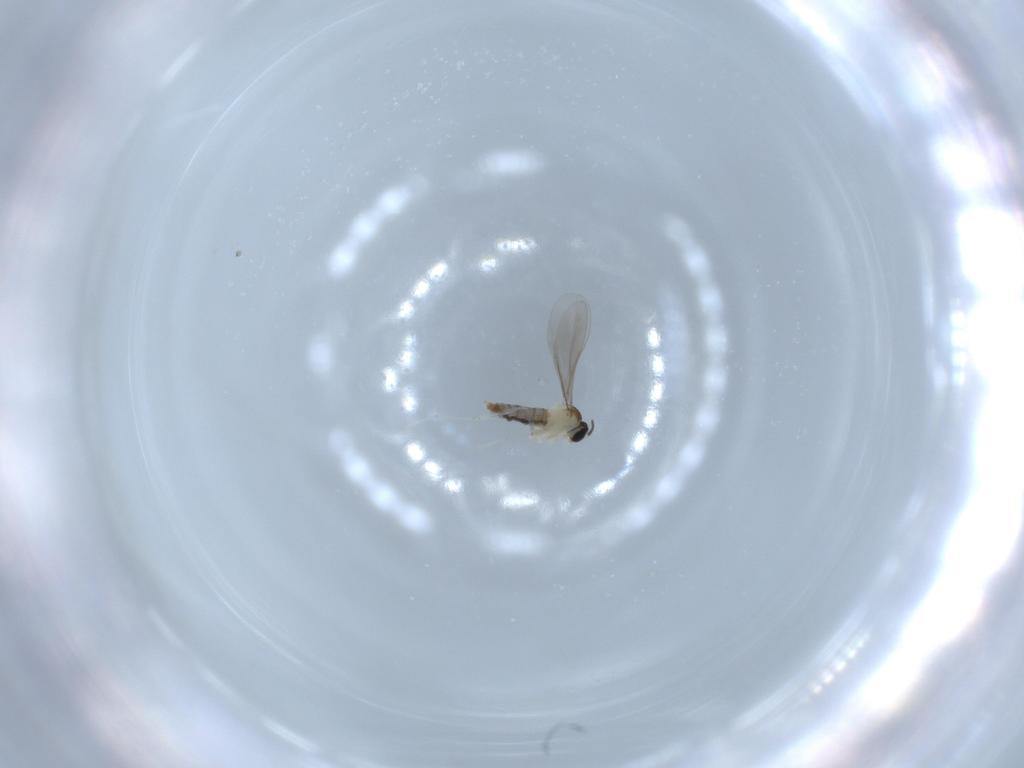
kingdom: Animalia
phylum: Arthropoda
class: Insecta
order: Diptera
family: Cecidomyiidae
